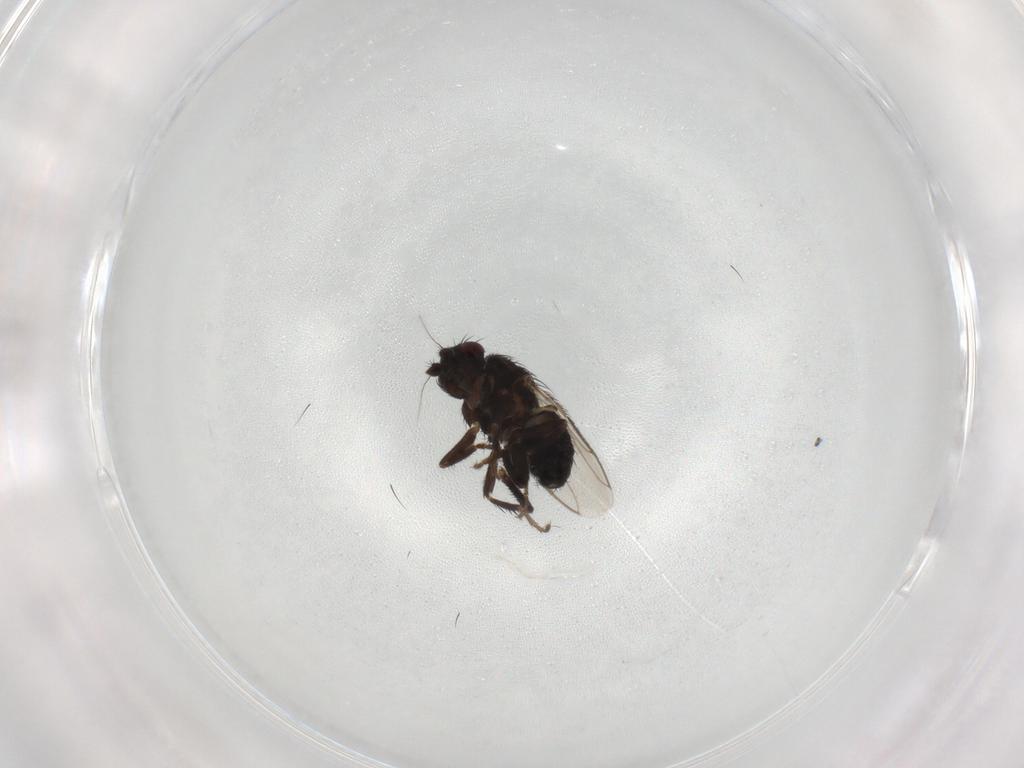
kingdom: Animalia
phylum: Arthropoda
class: Insecta
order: Diptera
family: Sphaeroceridae
